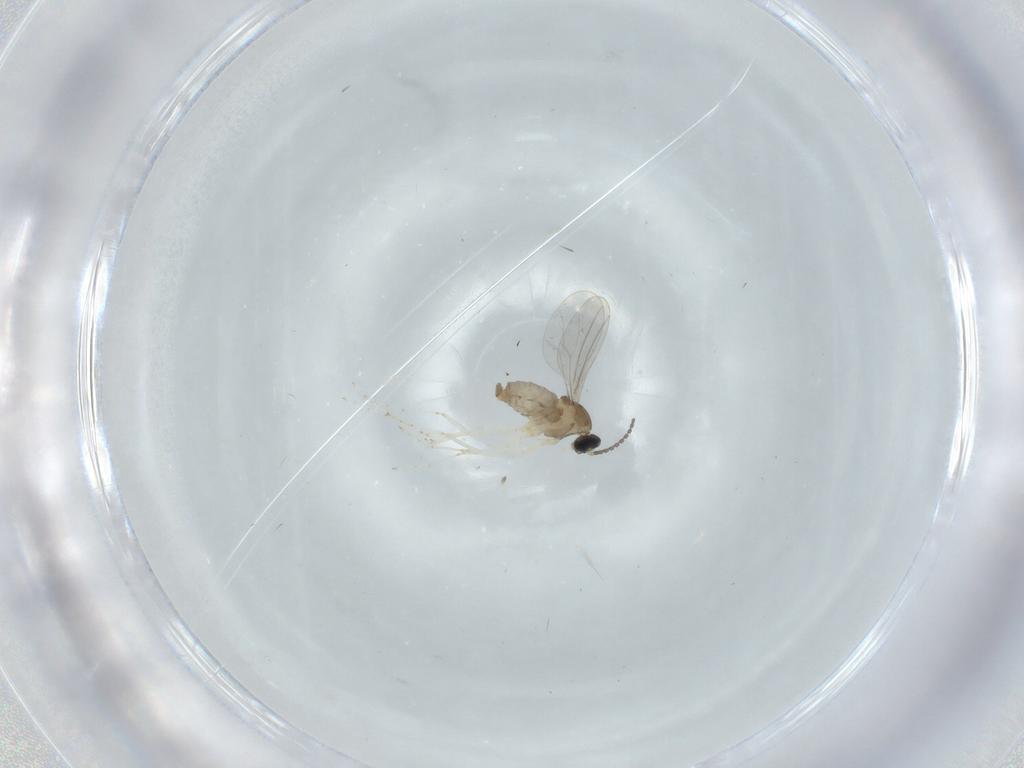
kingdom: Animalia
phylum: Arthropoda
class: Insecta
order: Diptera
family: Cecidomyiidae
